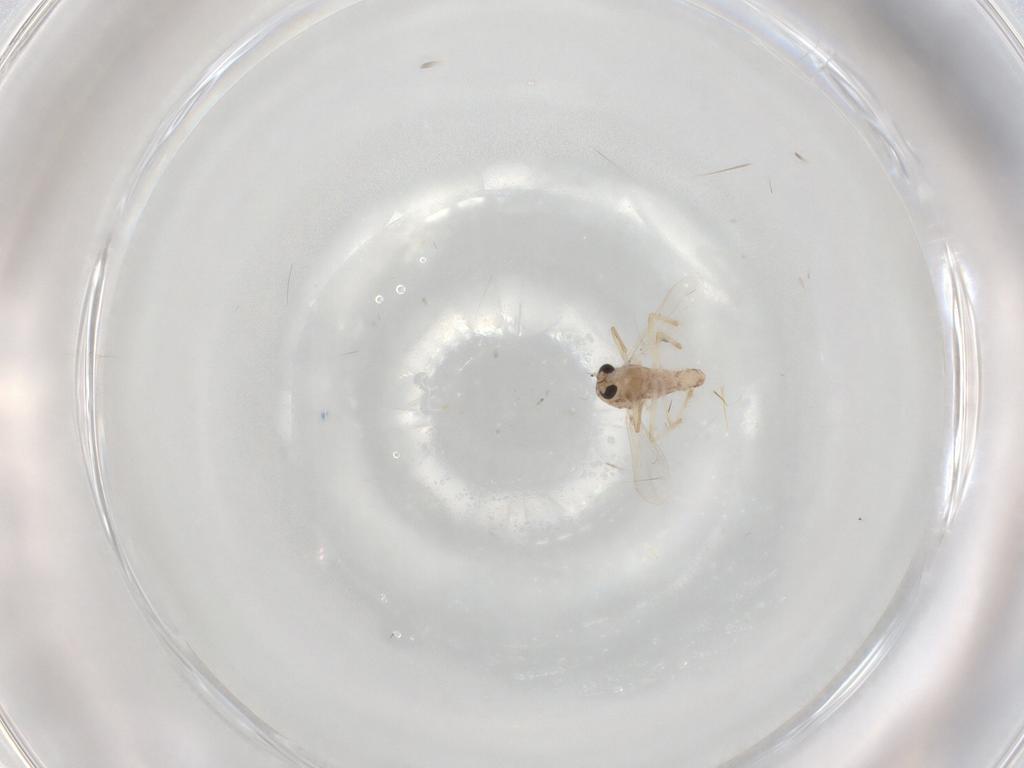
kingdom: Animalia
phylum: Arthropoda
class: Insecta
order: Diptera
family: Chironomidae
